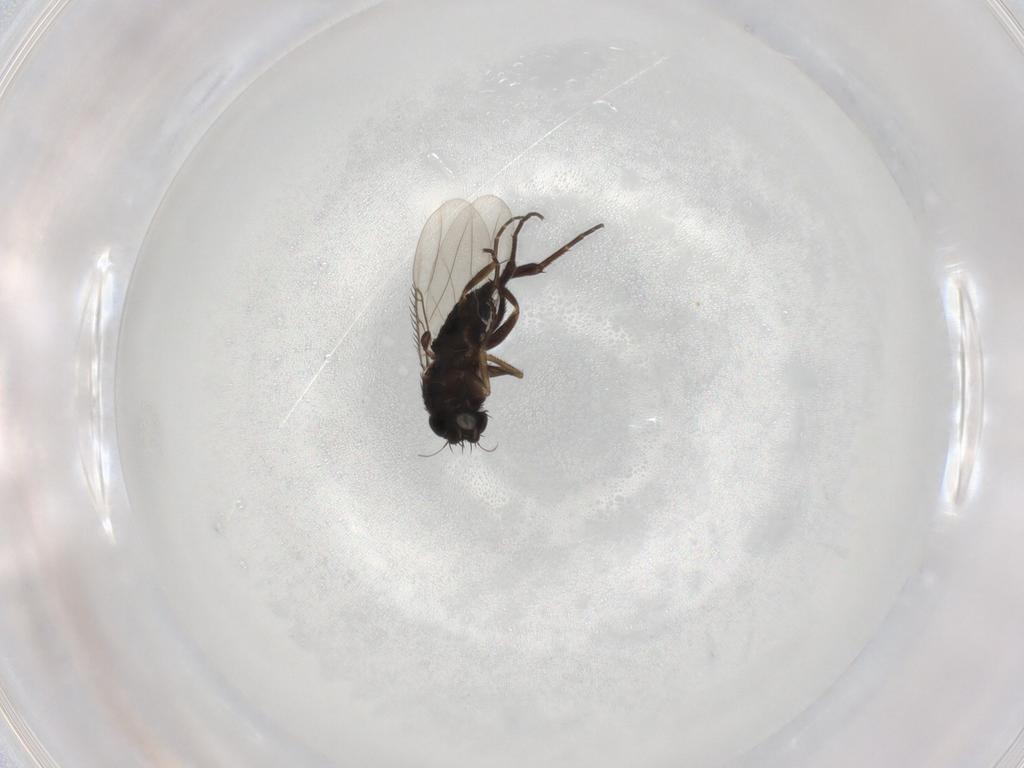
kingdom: Animalia
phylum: Arthropoda
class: Insecta
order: Diptera
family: Phoridae
